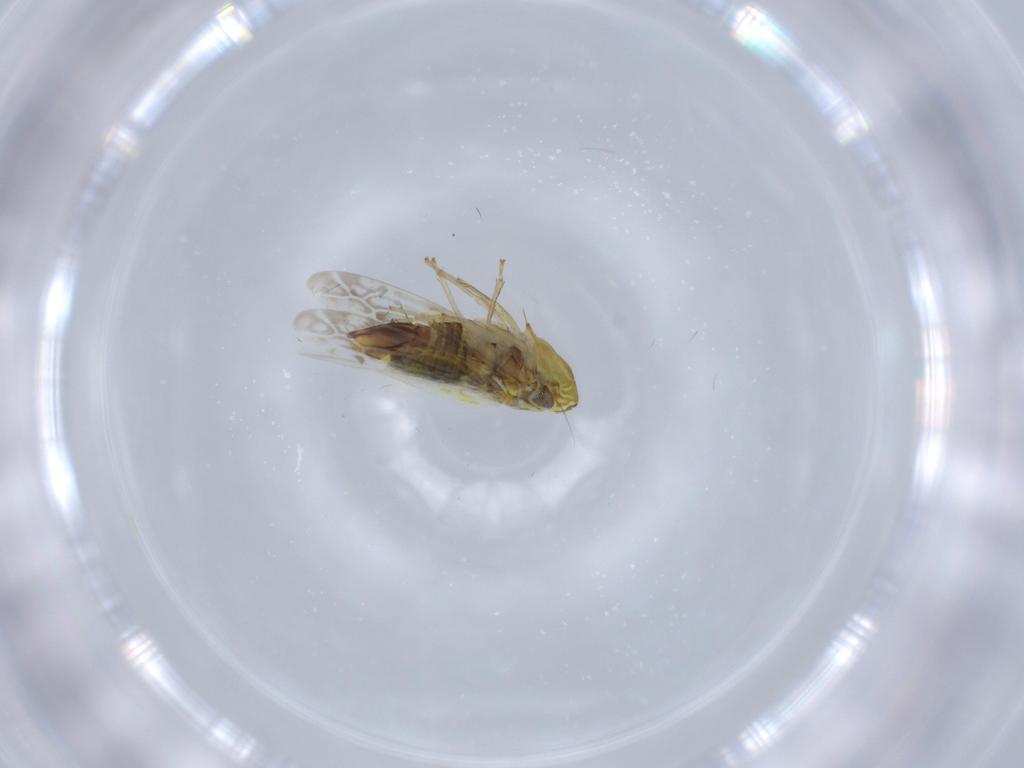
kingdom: Animalia
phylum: Arthropoda
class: Insecta
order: Hemiptera
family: Cicadellidae
